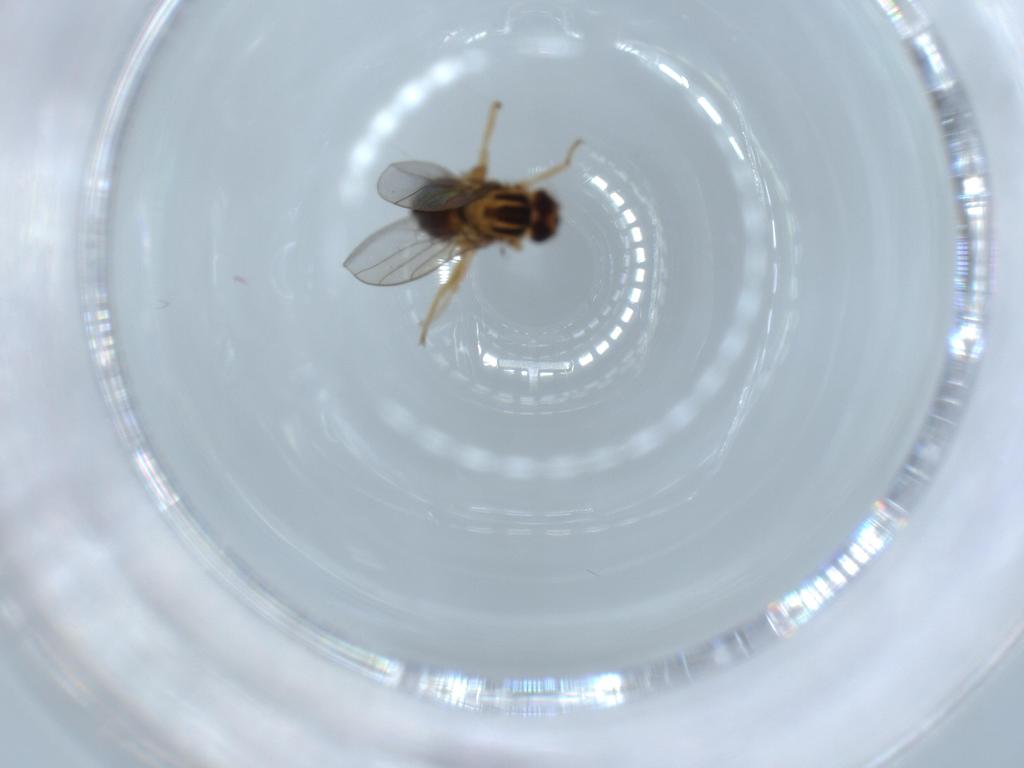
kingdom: Animalia
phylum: Arthropoda
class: Insecta
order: Diptera
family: Chloropidae
